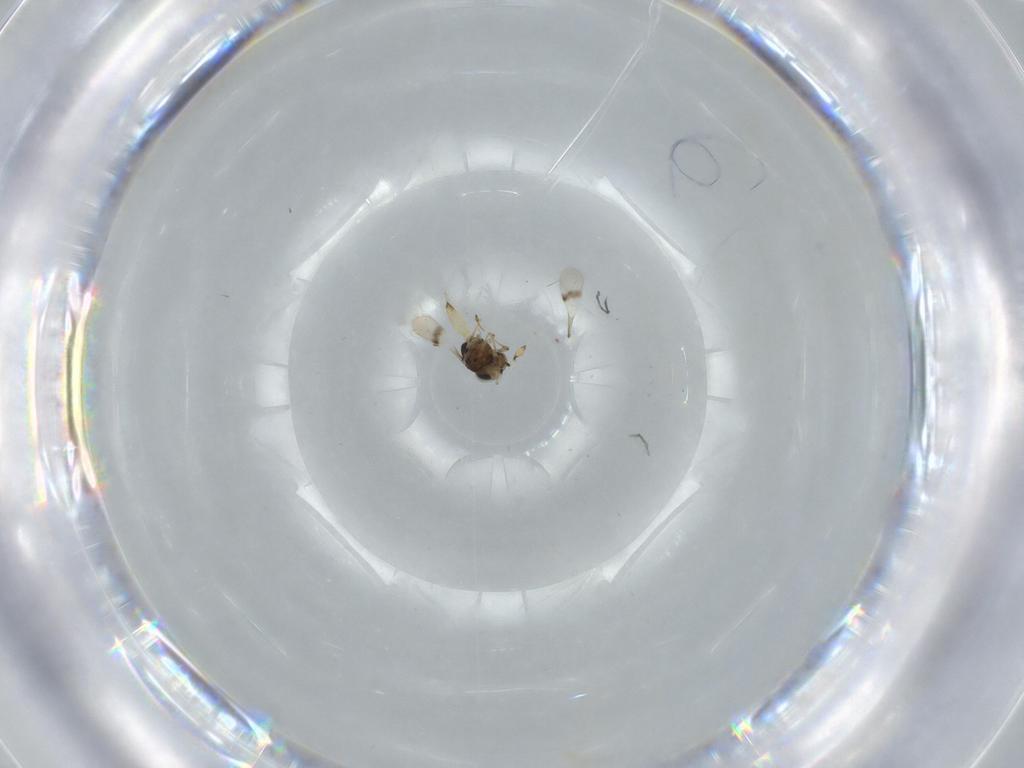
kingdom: Animalia
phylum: Arthropoda
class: Insecta
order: Hymenoptera
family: Scelionidae
